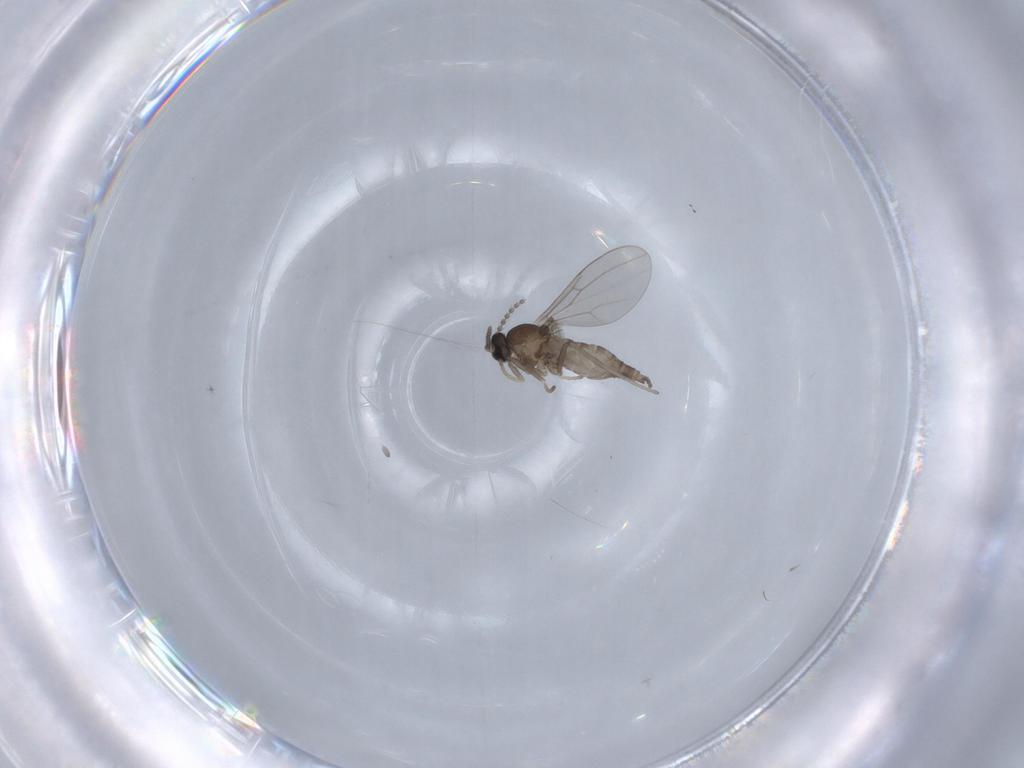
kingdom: Animalia
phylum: Arthropoda
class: Insecta
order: Diptera
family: Cecidomyiidae
